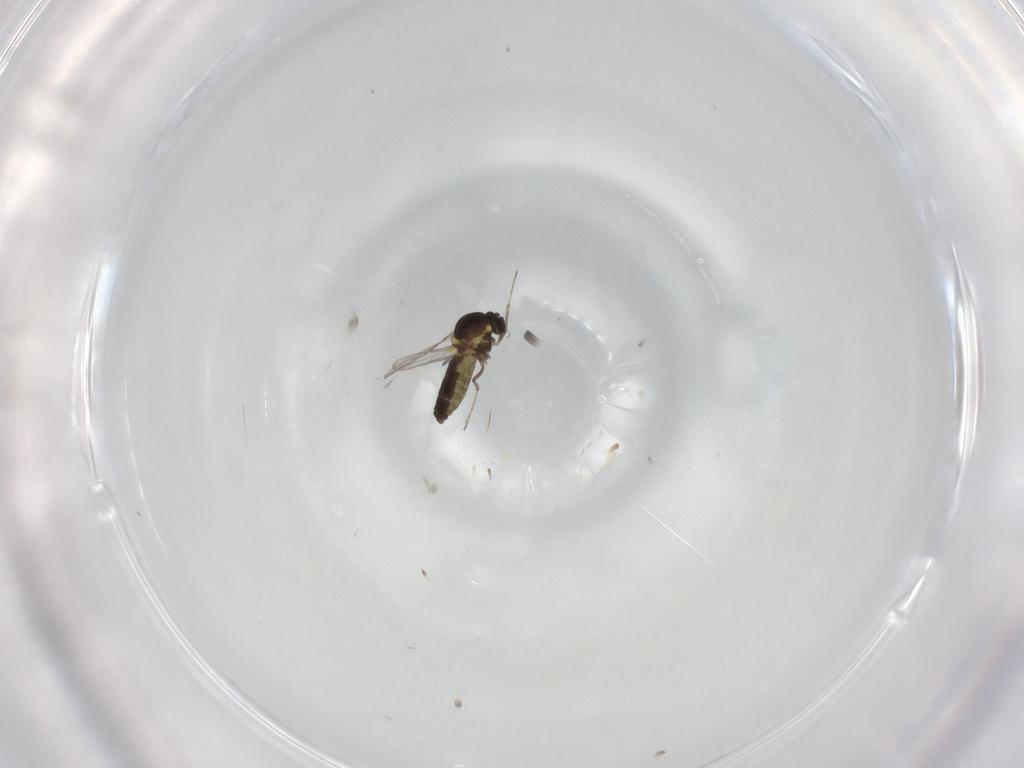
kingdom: Animalia
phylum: Arthropoda
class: Insecta
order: Diptera
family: Ceratopogonidae
